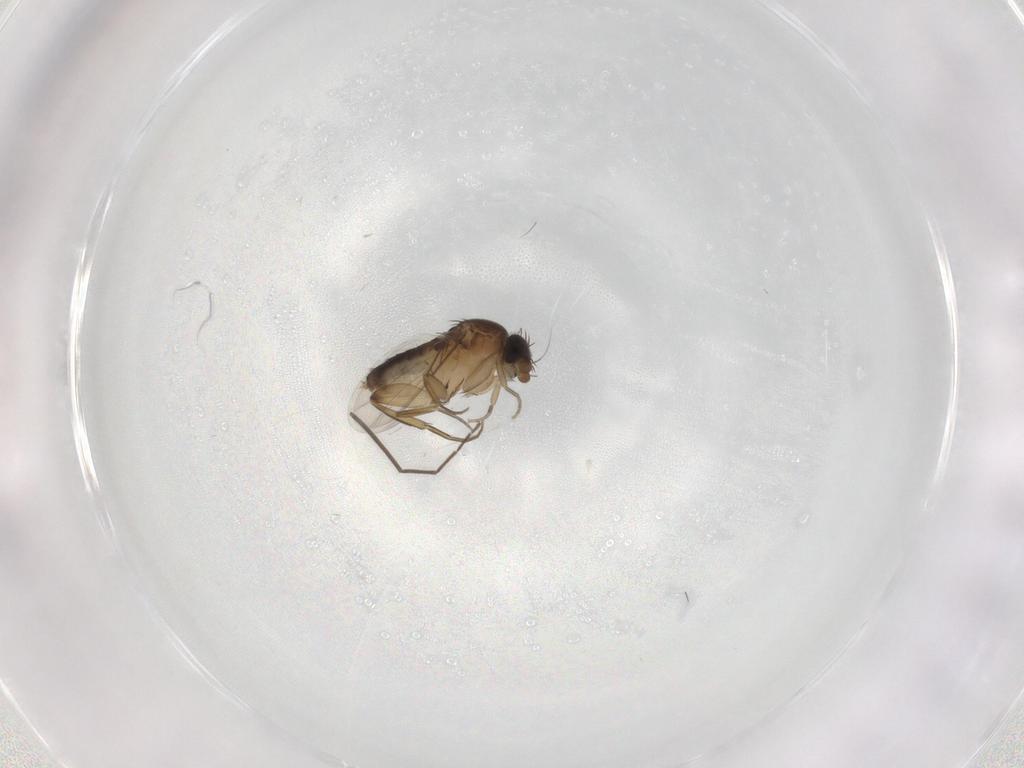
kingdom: Animalia
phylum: Arthropoda
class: Insecta
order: Diptera
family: Phoridae
